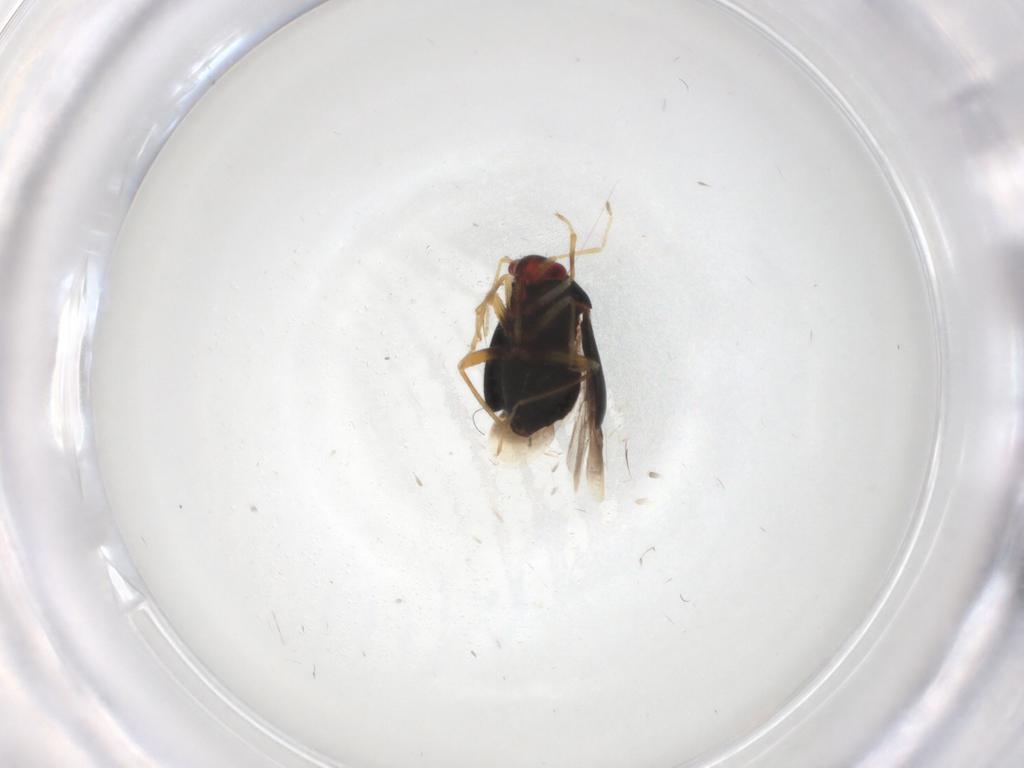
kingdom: Animalia
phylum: Arthropoda
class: Insecta
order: Hemiptera
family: Miridae
